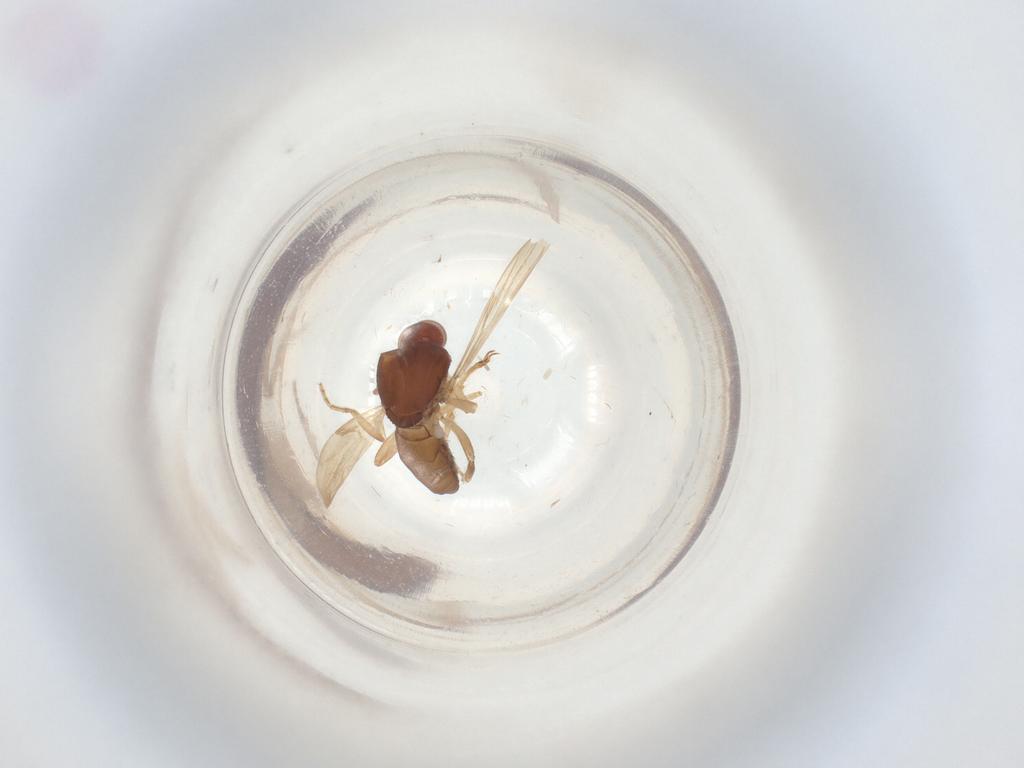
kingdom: Animalia
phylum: Arthropoda
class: Insecta
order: Diptera
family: Ceratopogonidae
